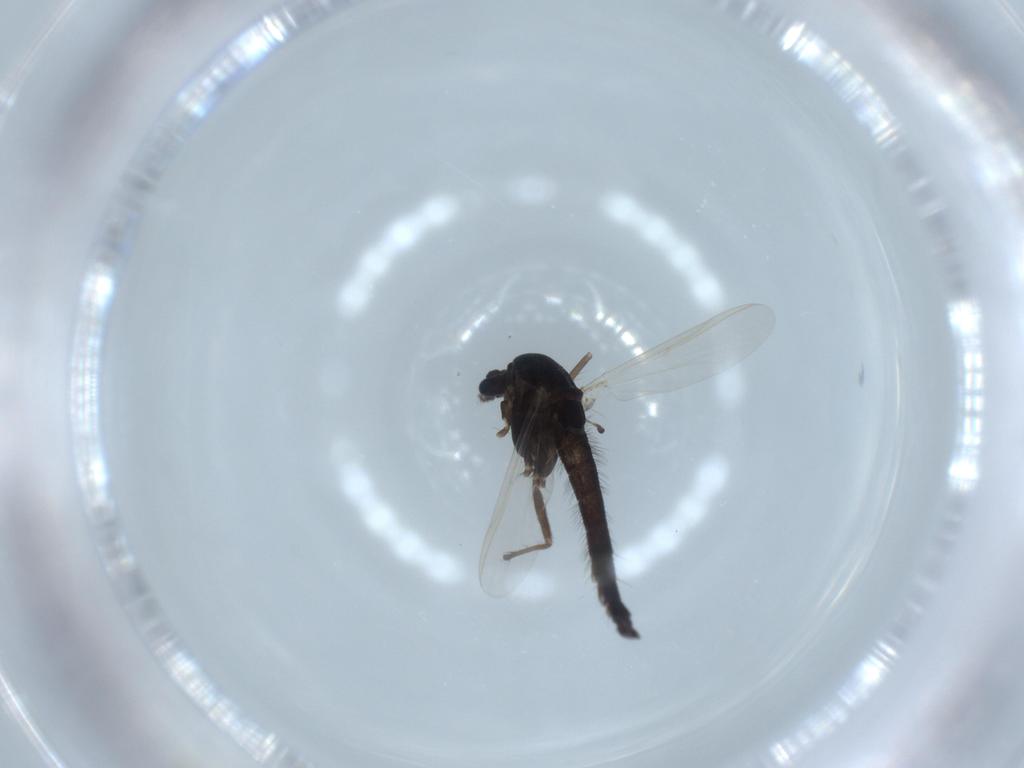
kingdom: Animalia
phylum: Arthropoda
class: Insecta
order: Diptera
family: Chironomidae
